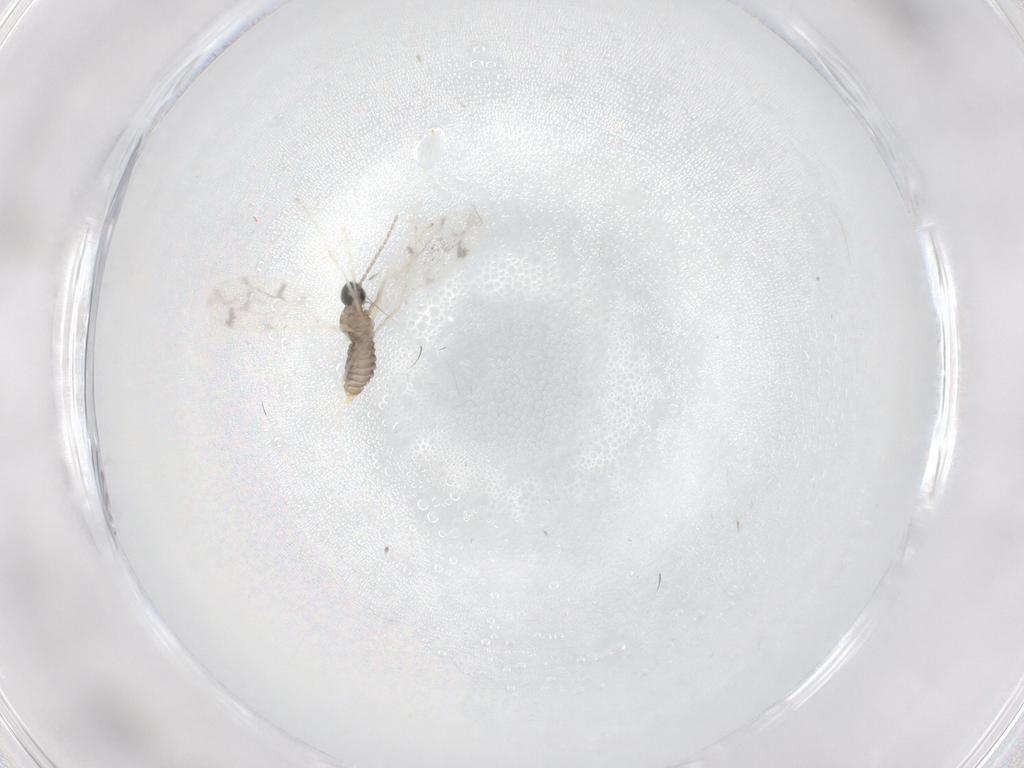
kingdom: Animalia
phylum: Arthropoda
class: Insecta
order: Diptera
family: Cecidomyiidae
